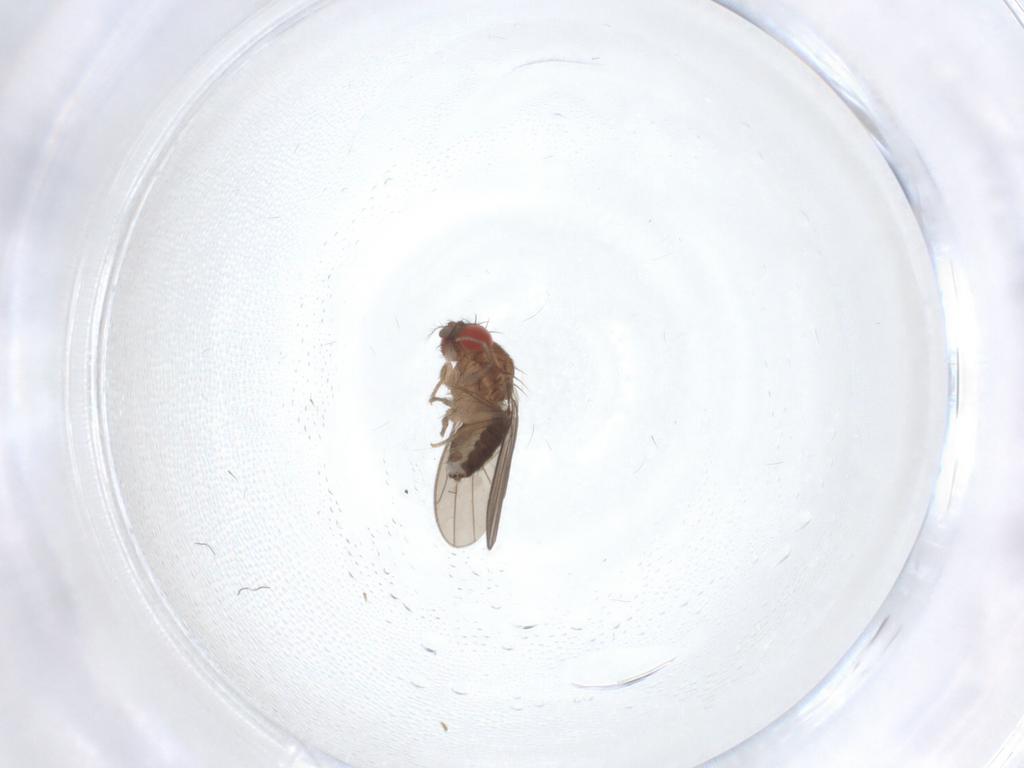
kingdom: Animalia
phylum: Arthropoda
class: Insecta
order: Diptera
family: Drosophilidae
